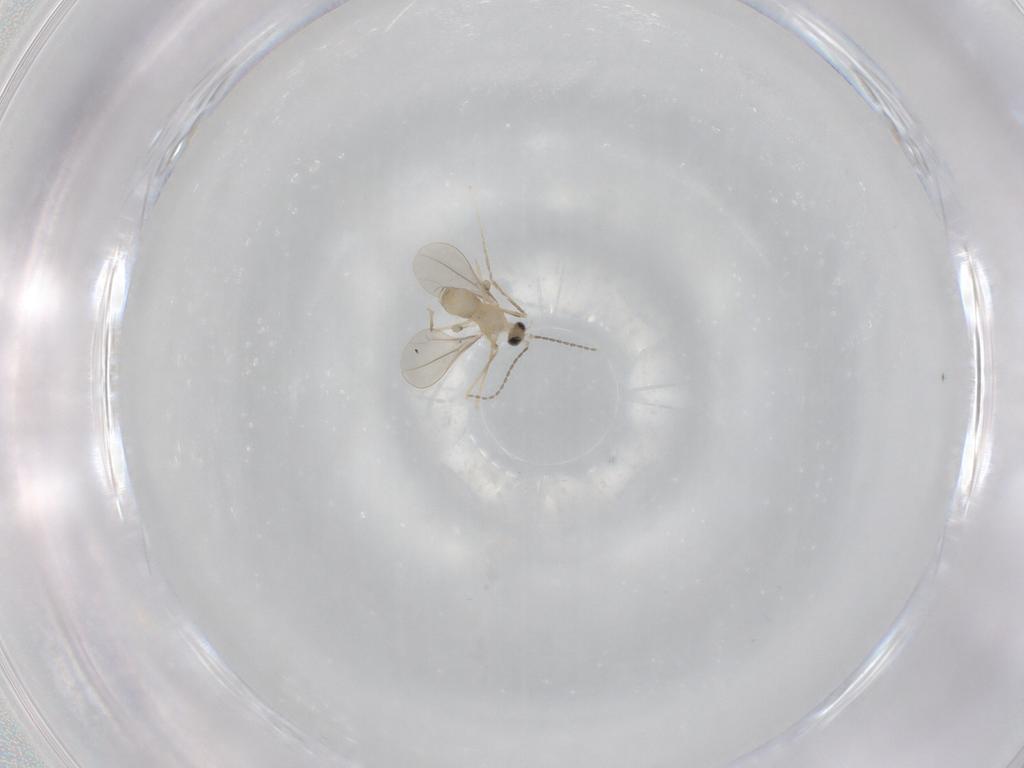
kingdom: Animalia
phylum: Arthropoda
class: Insecta
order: Diptera
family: Cecidomyiidae
